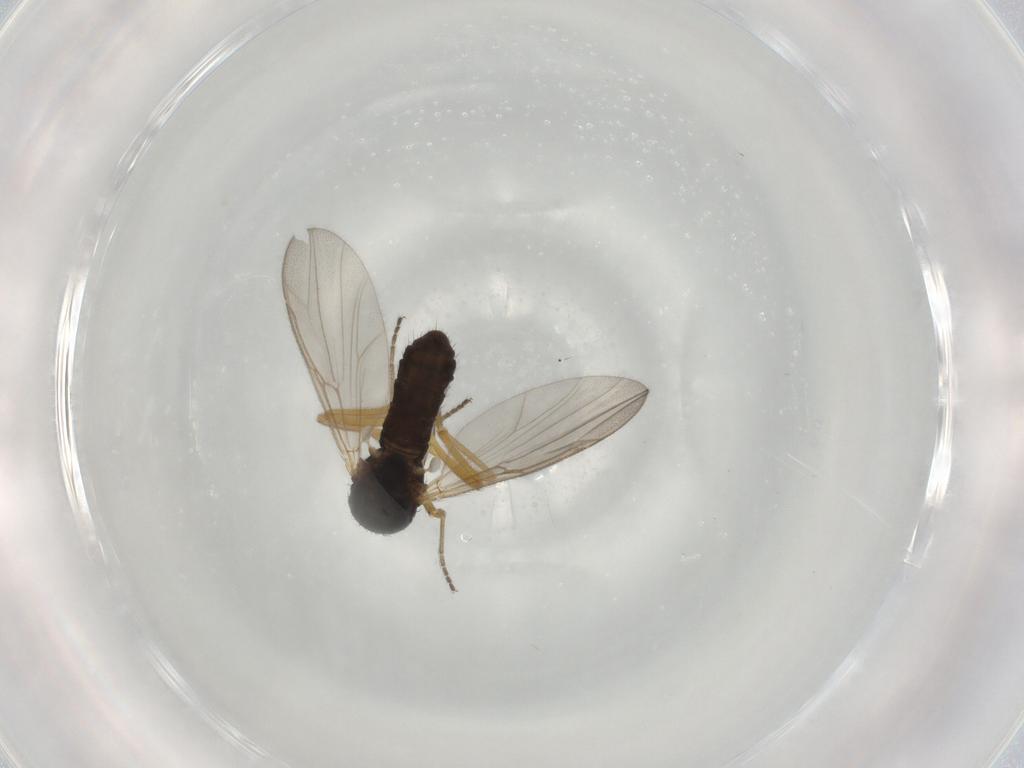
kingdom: Animalia
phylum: Arthropoda
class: Insecta
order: Diptera
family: Ceratopogonidae
